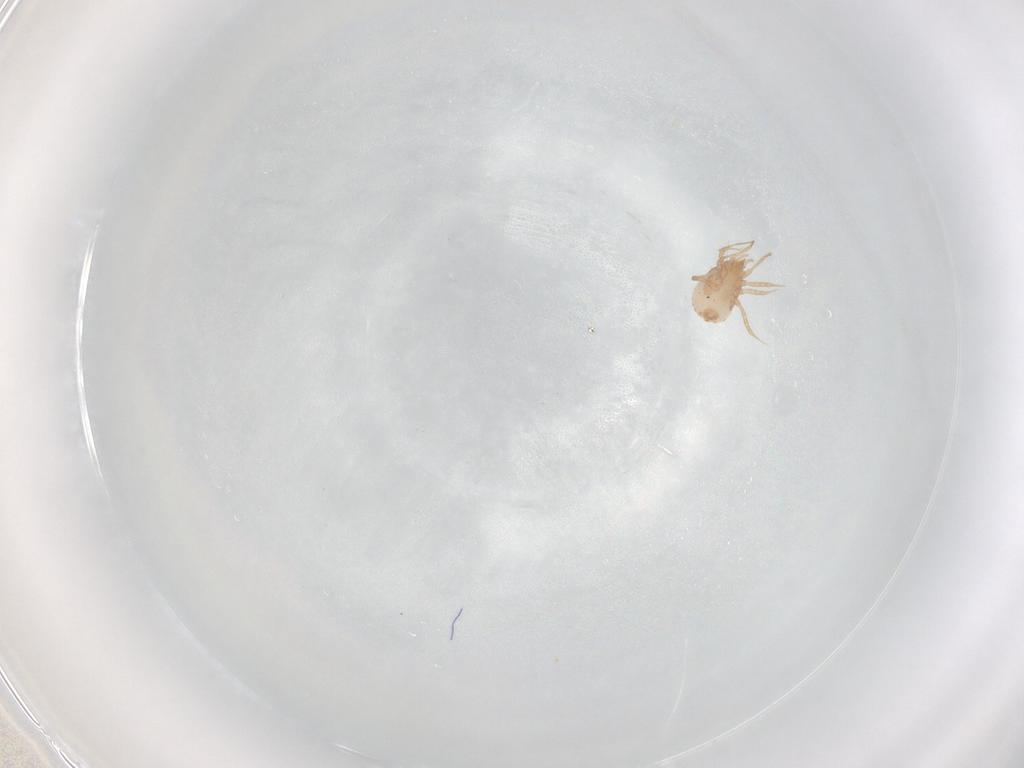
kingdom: Animalia
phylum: Arthropoda
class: Arachnida
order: Mesostigmata
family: Blattisociidae
